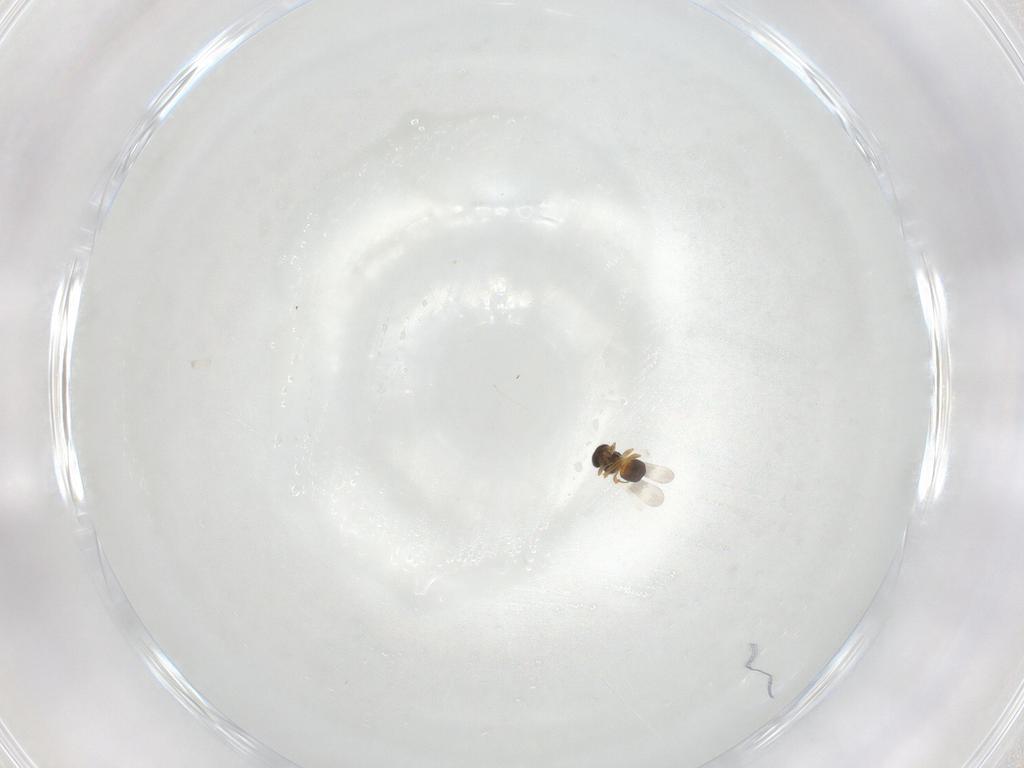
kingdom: Animalia
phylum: Arthropoda
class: Insecta
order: Hymenoptera
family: Platygastridae
